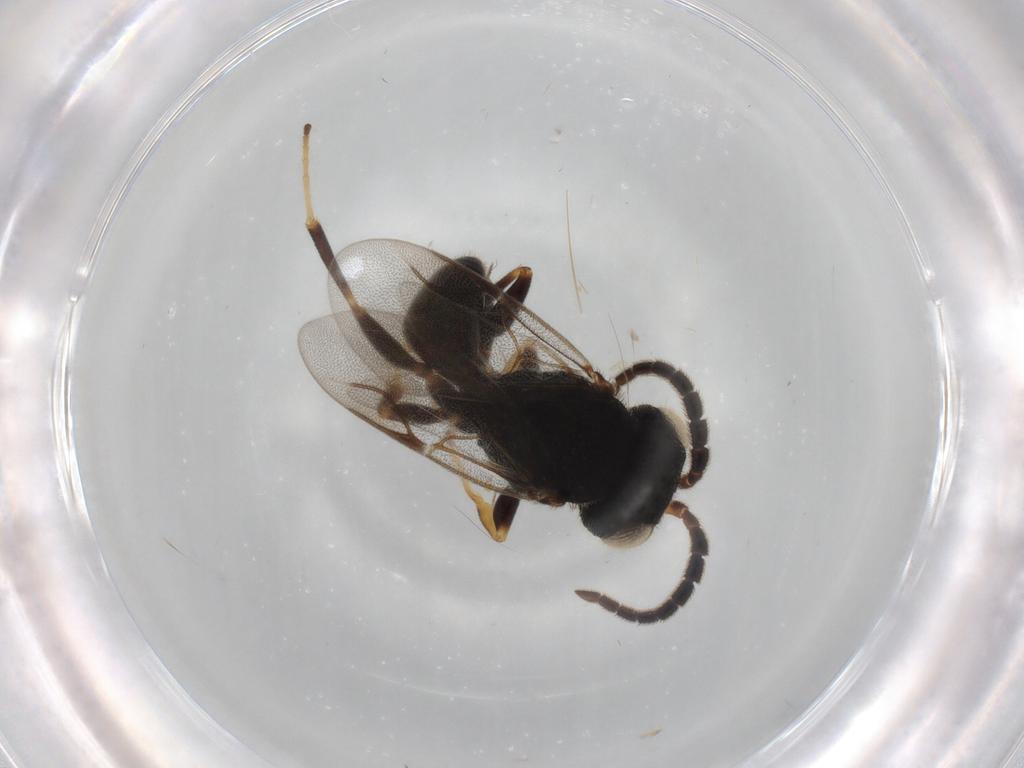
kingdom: Animalia
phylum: Arthropoda
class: Insecta
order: Hymenoptera
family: Dryinidae
